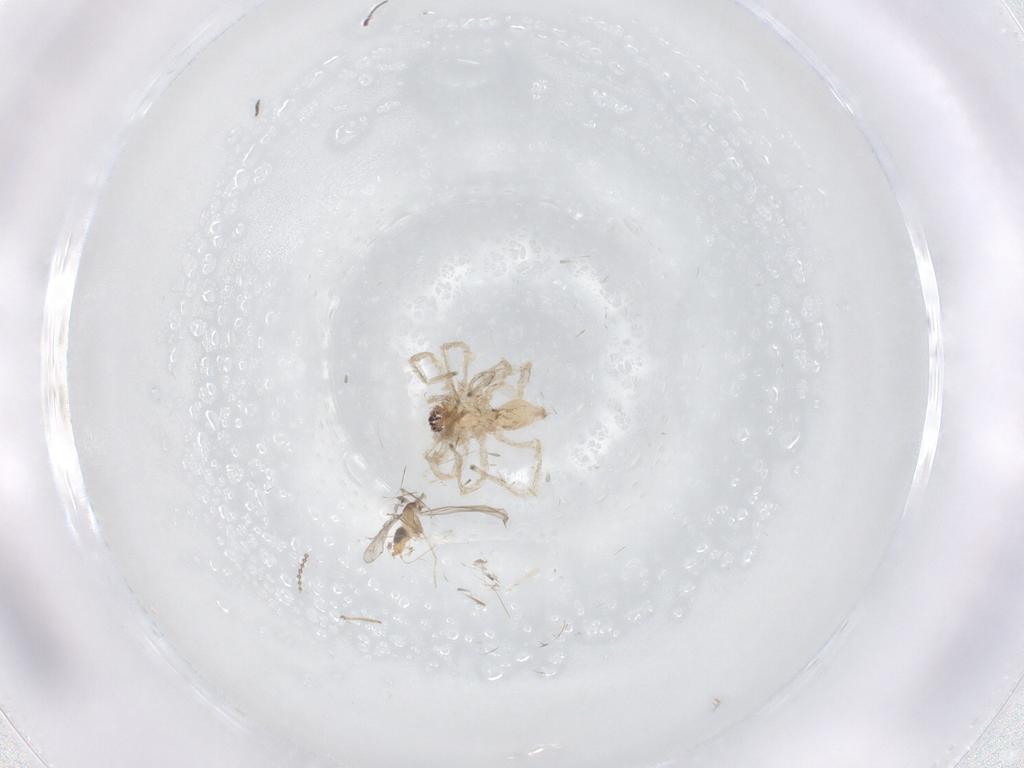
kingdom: Animalia
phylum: Arthropoda
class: Arachnida
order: Araneae
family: Clubionidae
